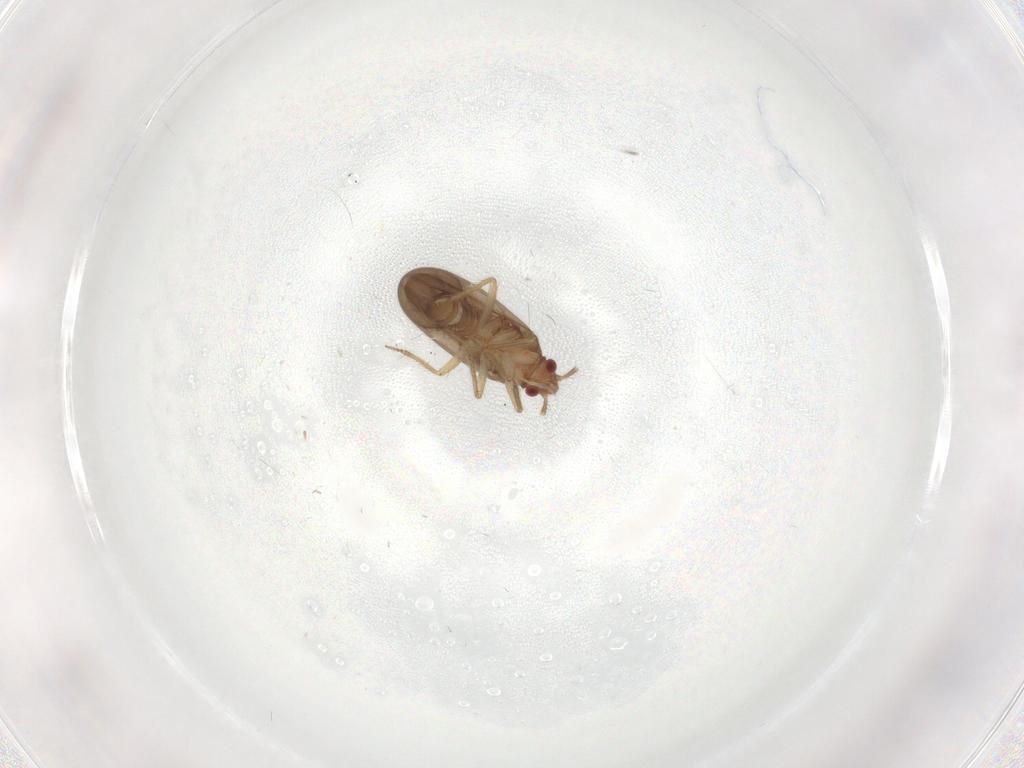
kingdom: Animalia
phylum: Arthropoda
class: Insecta
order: Hemiptera
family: Ceratocombidae
